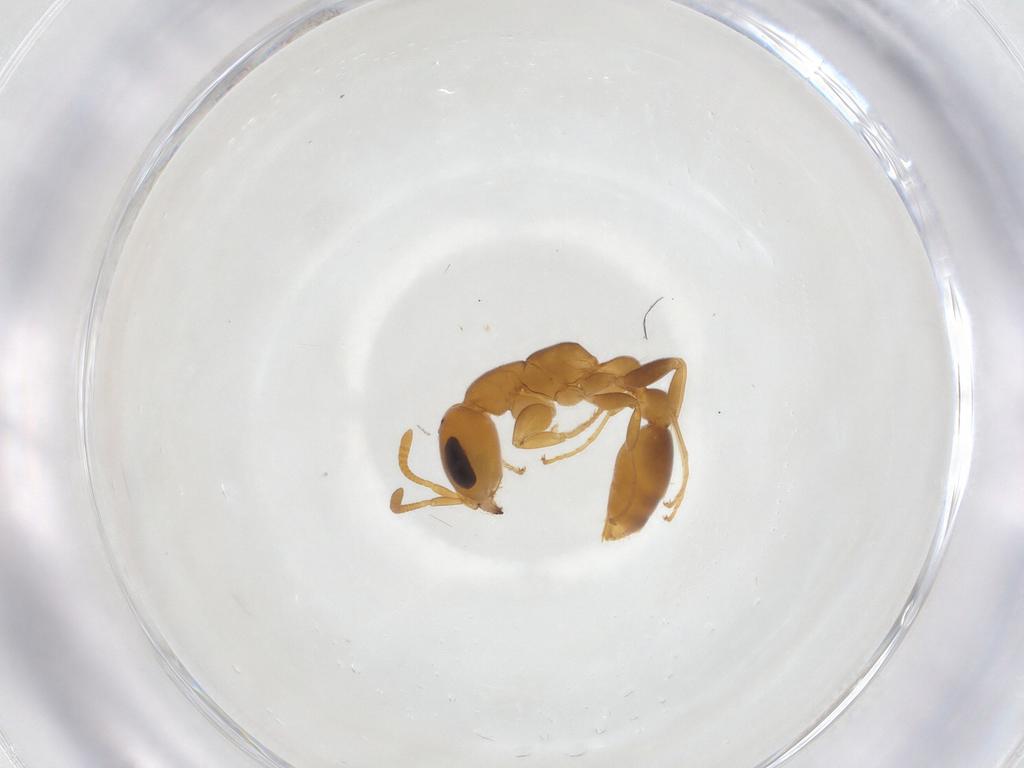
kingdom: Animalia
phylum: Arthropoda
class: Insecta
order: Hymenoptera
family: Formicidae
